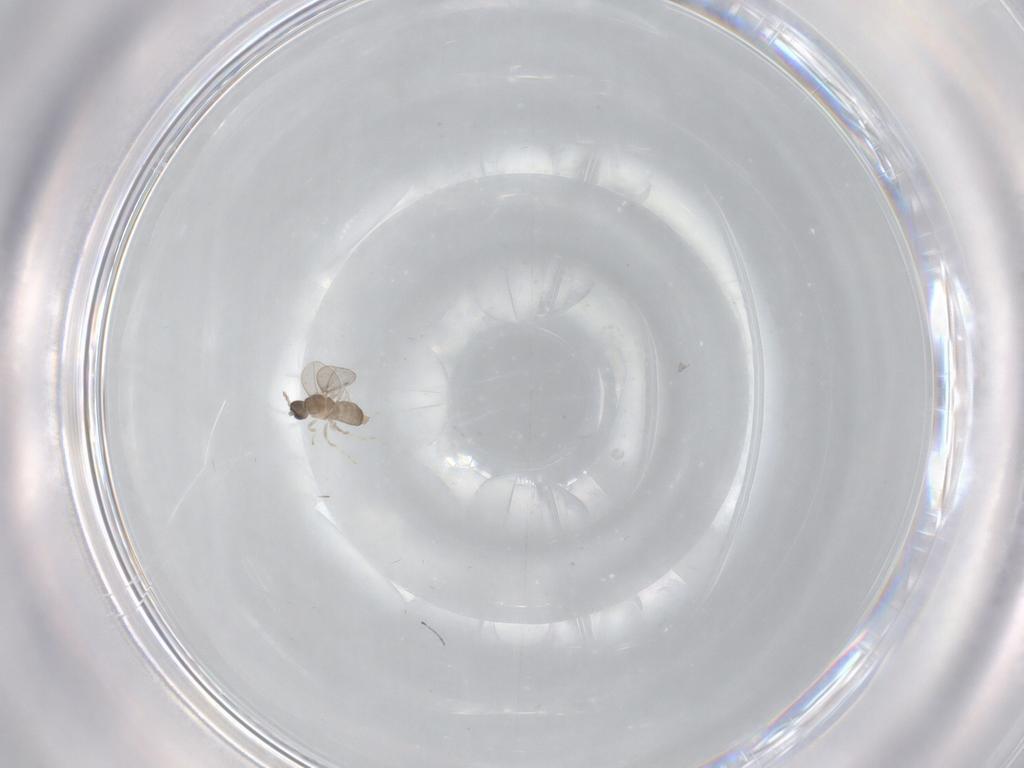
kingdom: Animalia
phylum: Arthropoda
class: Insecta
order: Diptera
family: Cecidomyiidae
